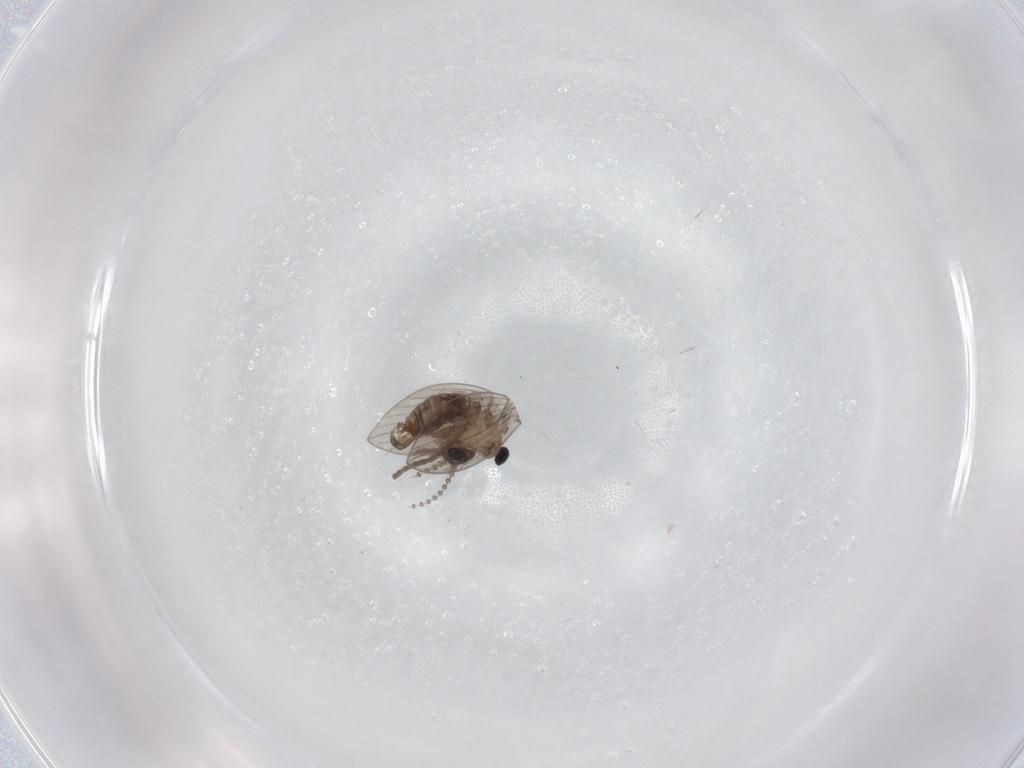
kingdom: Animalia
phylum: Arthropoda
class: Insecta
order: Diptera
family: Psychodidae
